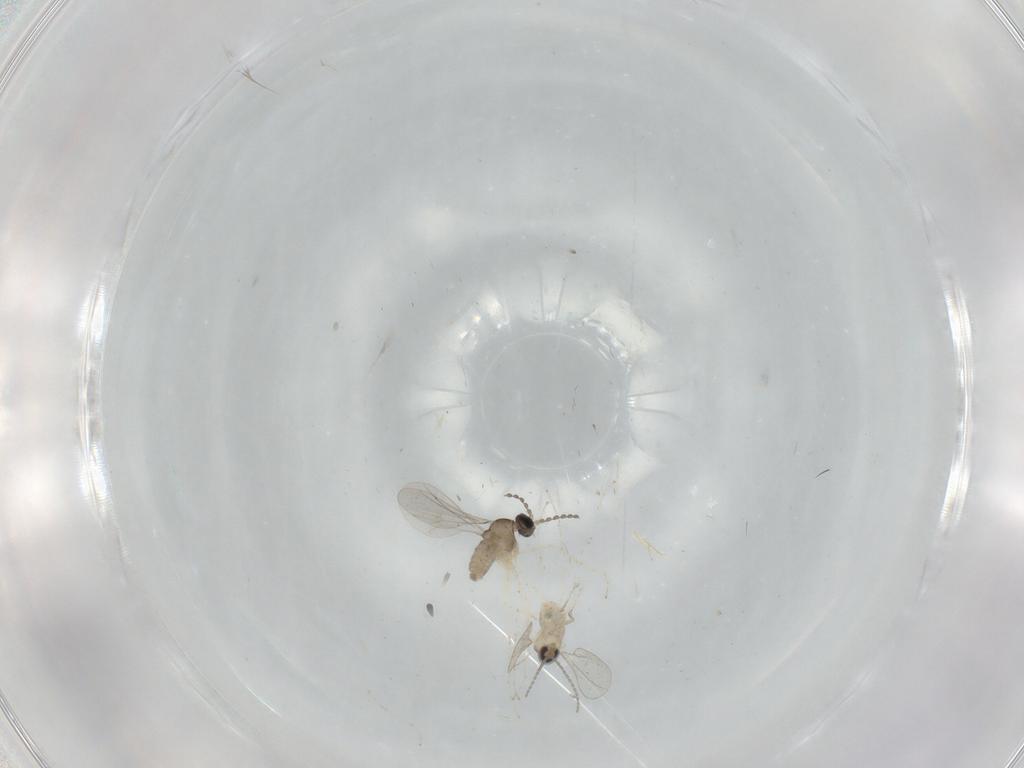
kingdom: Animalia
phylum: Arthropoda
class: Insecta
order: Diptera
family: Cecidomyiidae
